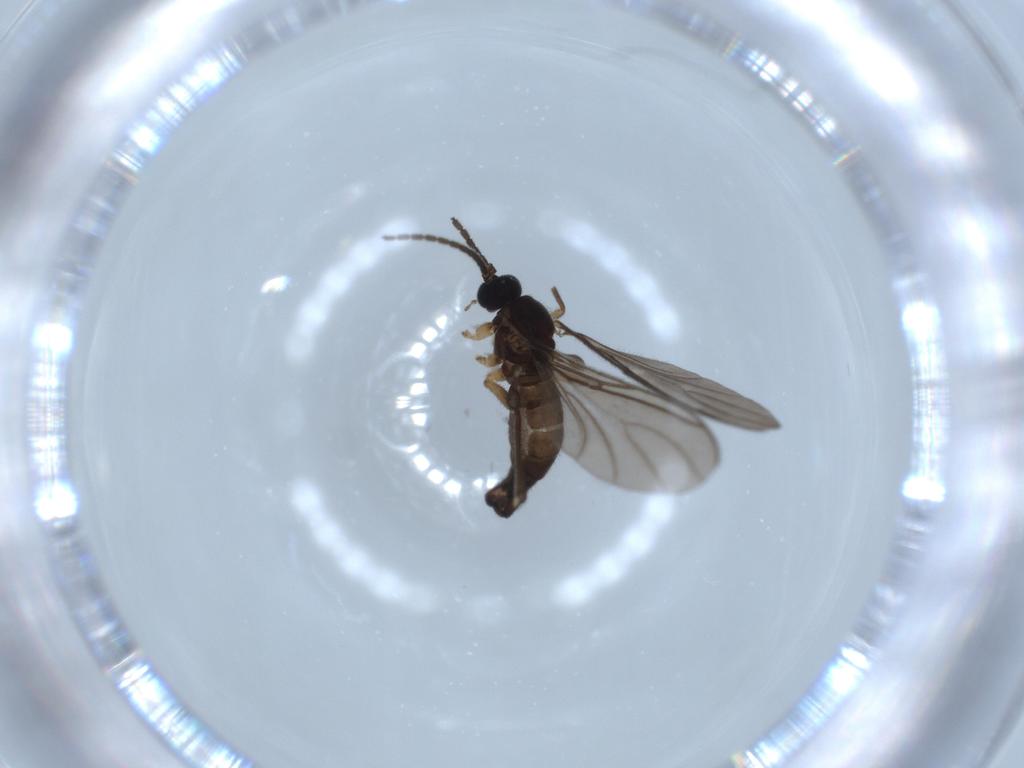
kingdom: Animalia
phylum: Arthropoda
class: Insecta
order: Diptera
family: Sciaridae
